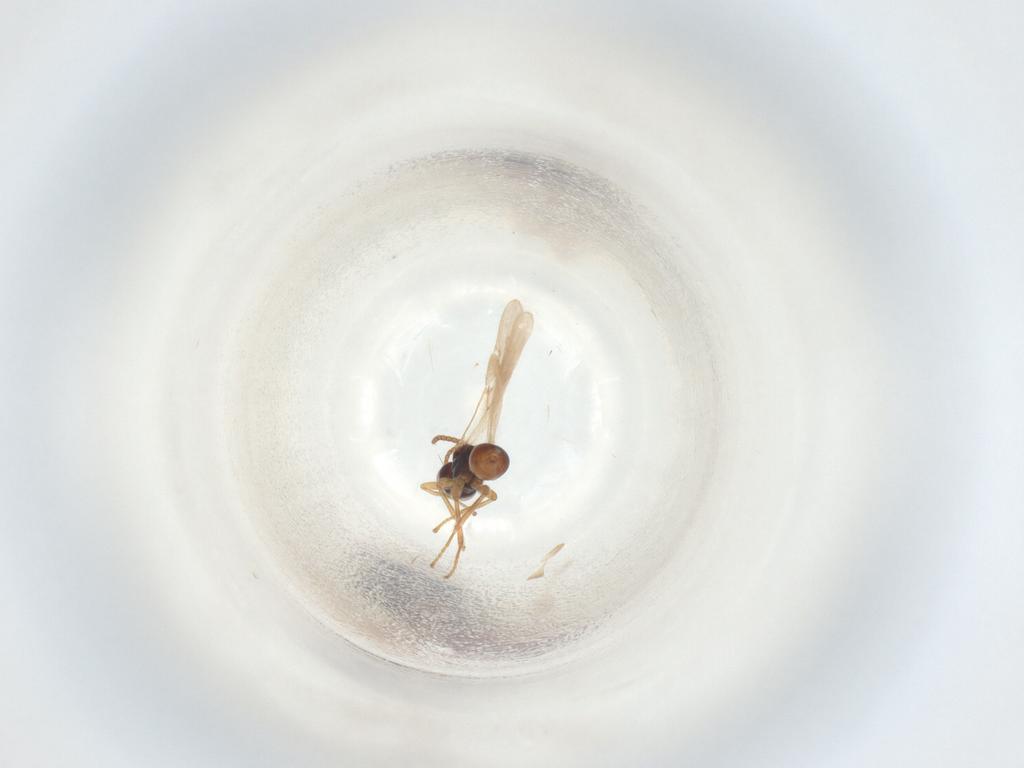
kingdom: Animalia
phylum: Arthropoda
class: Insecta
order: Hymenoptera
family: Braconidae
